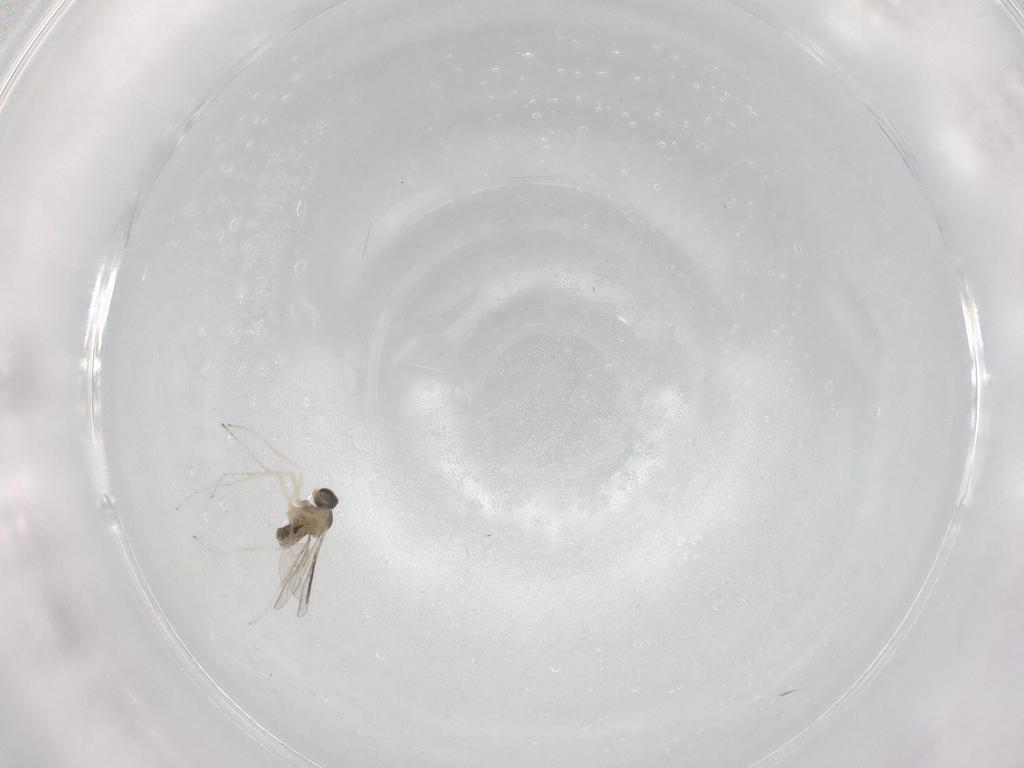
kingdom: Animalia
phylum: Arthropoda
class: Insecta
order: Diptera
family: Cecidomyiidae
